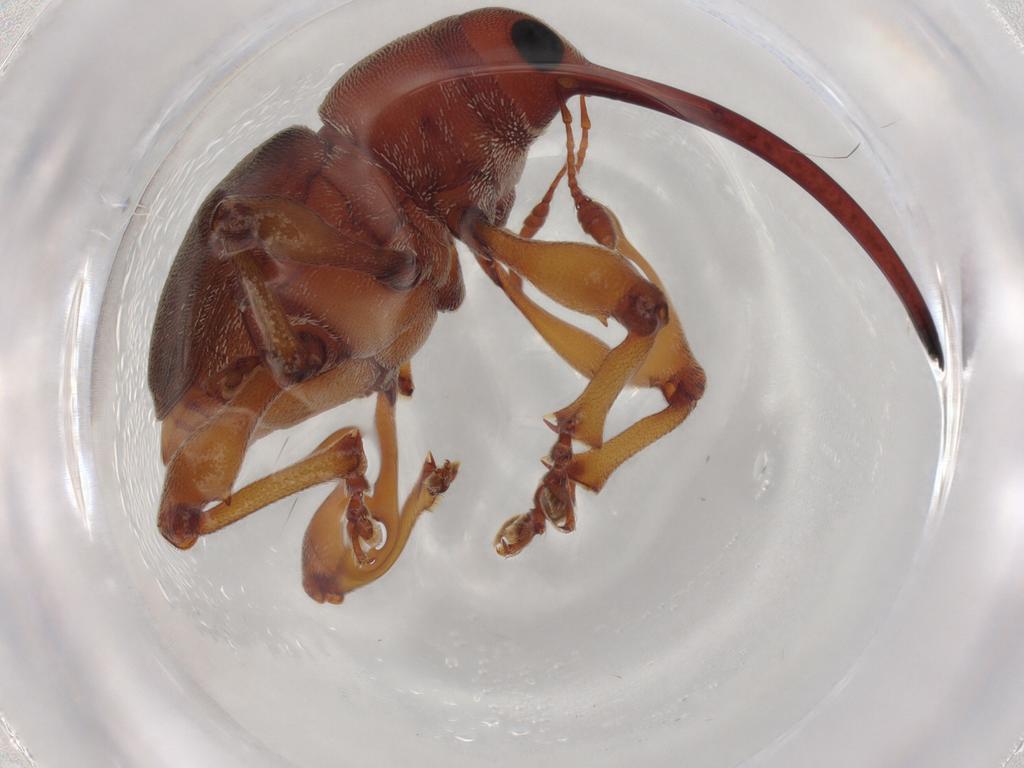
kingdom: Animalia
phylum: Arthropoda
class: Insecta
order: Coleoptera
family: Curculionidae
